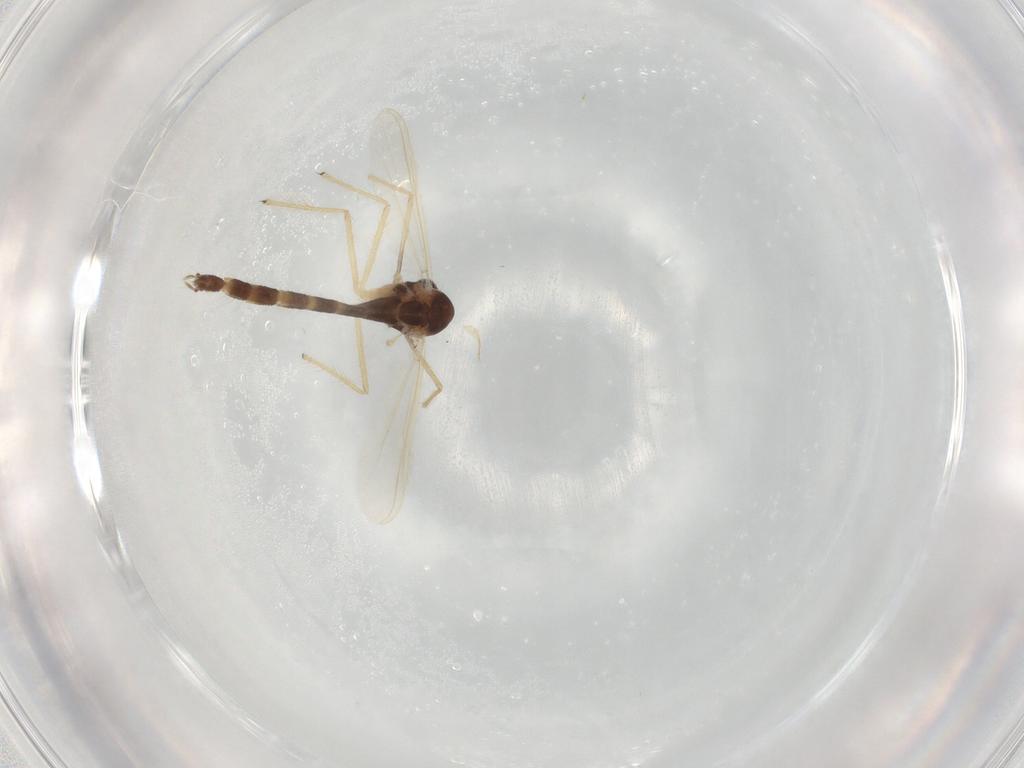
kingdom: Animalia
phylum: Arthropoda
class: Insecta
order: Diptera
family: Chironomidae
